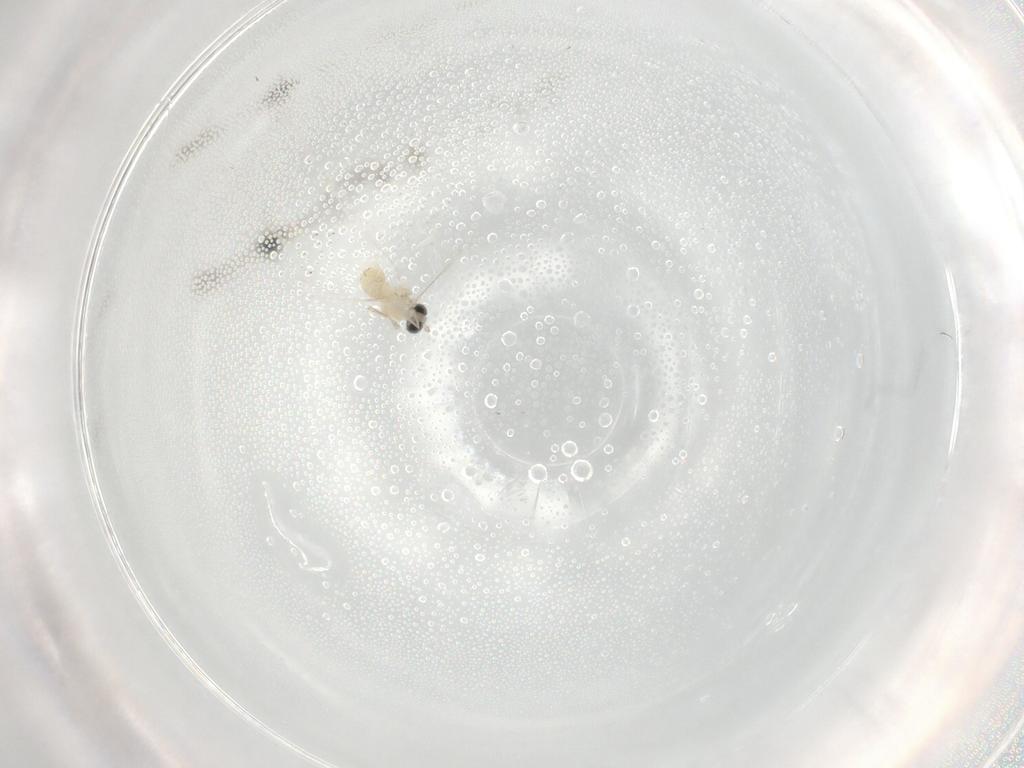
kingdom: Animalia
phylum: Arthropoda
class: Insecta
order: Diptera
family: Cecidomyiidae
